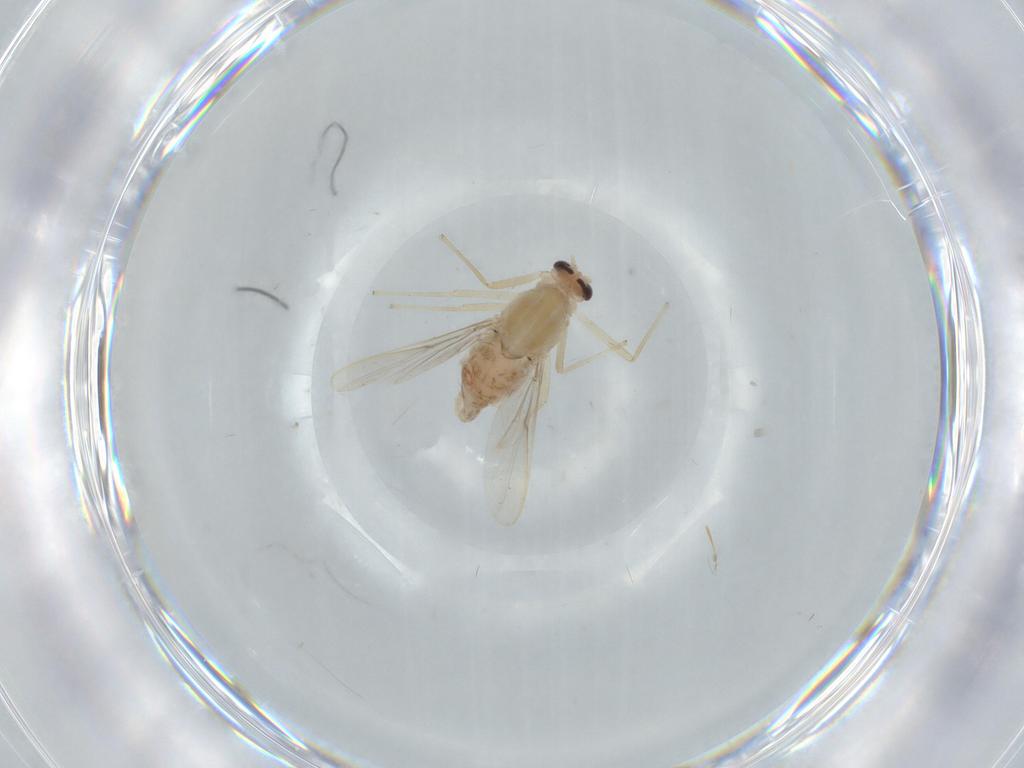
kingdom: Animalia
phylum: Arthropoda
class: Insecta
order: Diptera
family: Chironomidae
